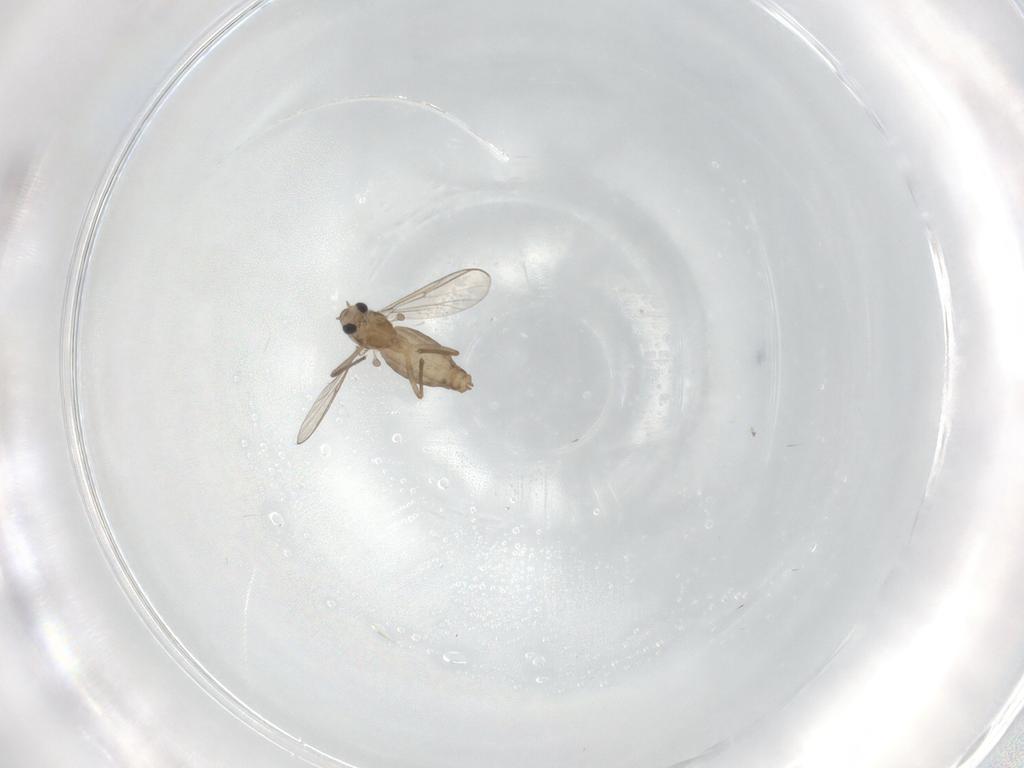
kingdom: Animalia
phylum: Arthropoda
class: Insecta
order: Diptera
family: Chironomidae
